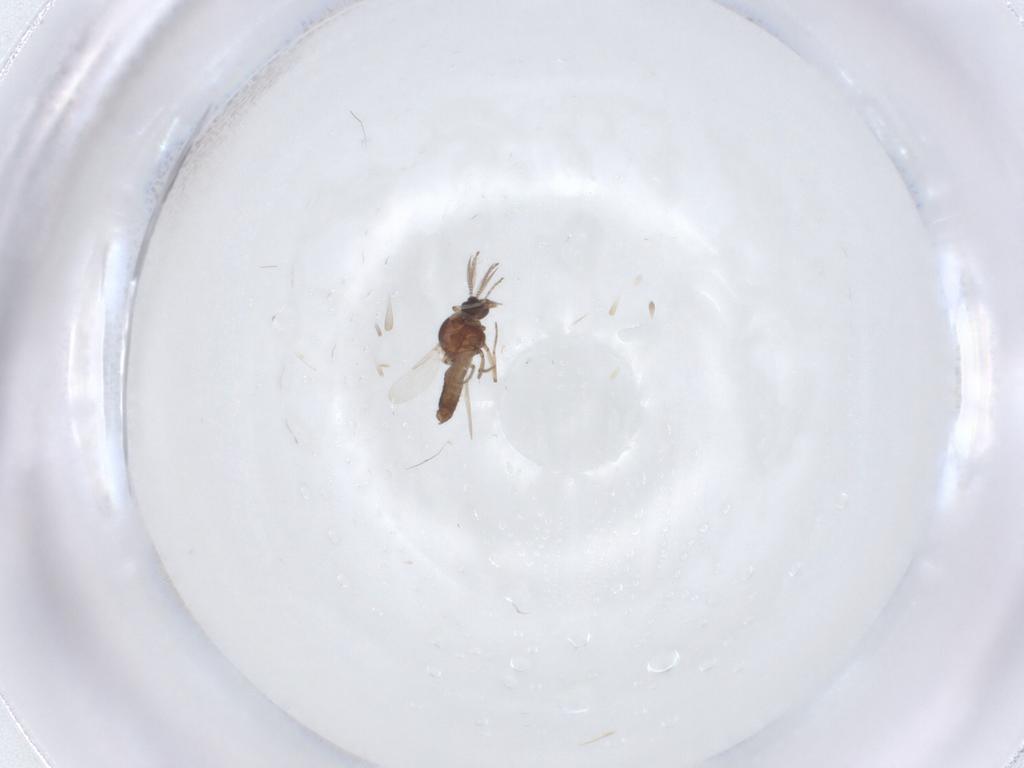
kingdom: Animalia
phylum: Arthropoda
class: Insecta
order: Diptera
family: Ceratopogonidae
